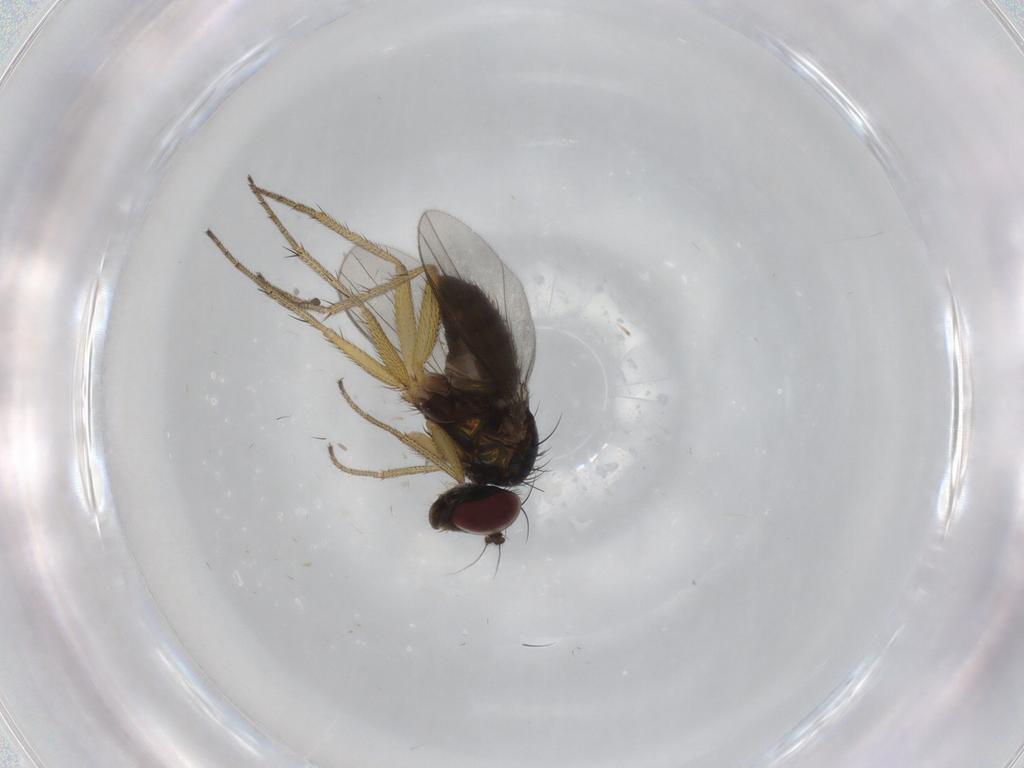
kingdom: Animalia
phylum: Arthropoda
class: Insecta
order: Diptera
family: Dolichopodidae
